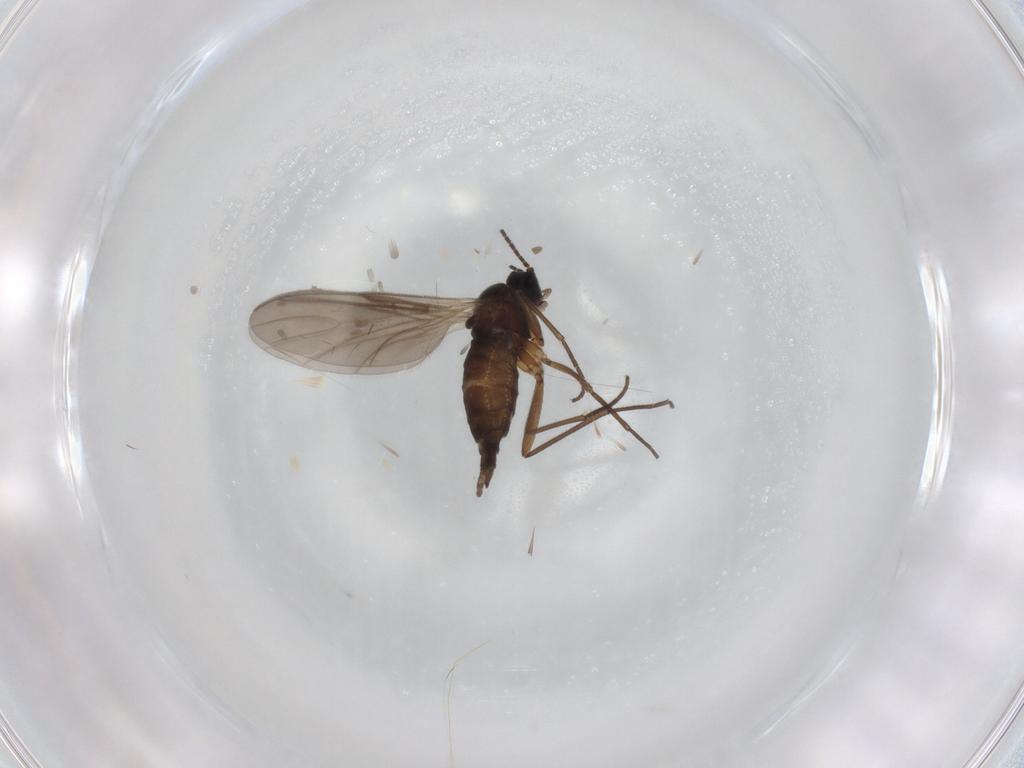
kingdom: Animalia
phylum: Arthropoda
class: Insecta
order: Diptera
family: Sciaridae
